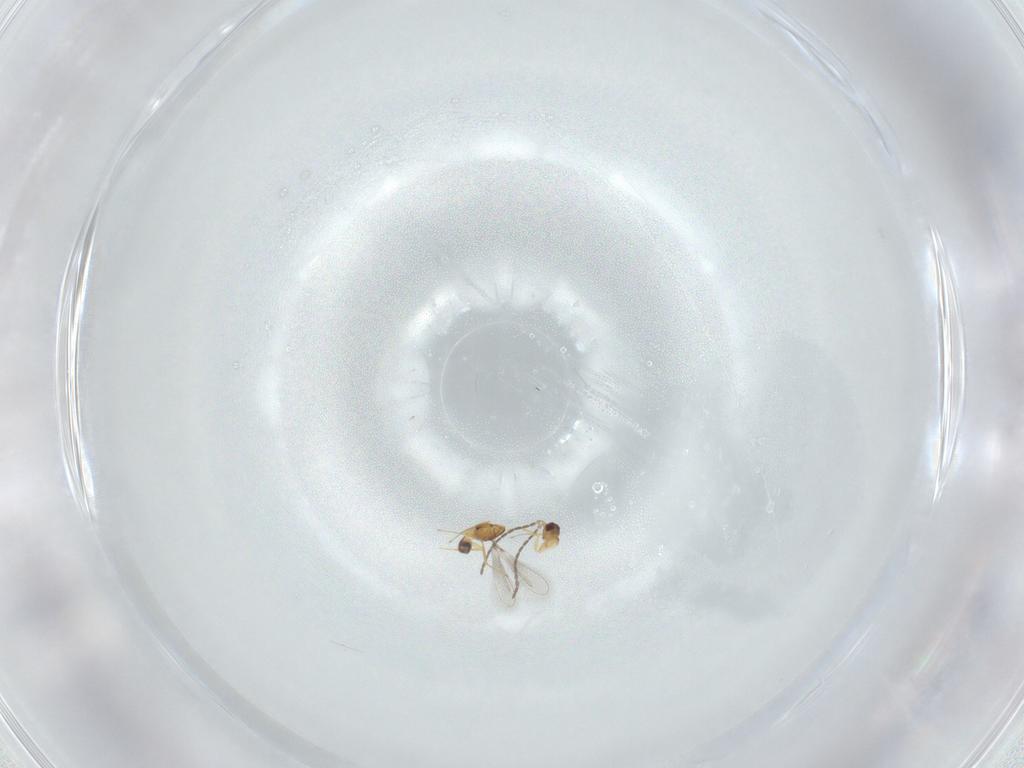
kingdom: Animalia
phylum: Arthropoda
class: Insecta
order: Hymenoptera
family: Mymaridae
